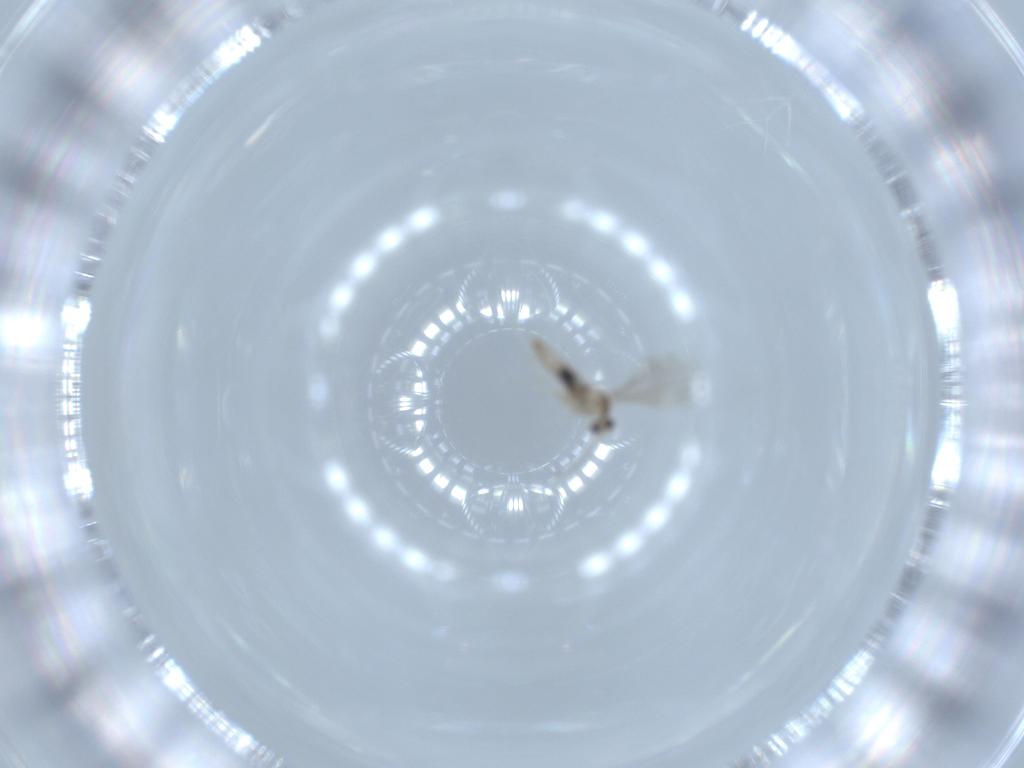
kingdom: Animalia
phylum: Arthropoda
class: Insecta
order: Diptera
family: Cecidomyiidae
